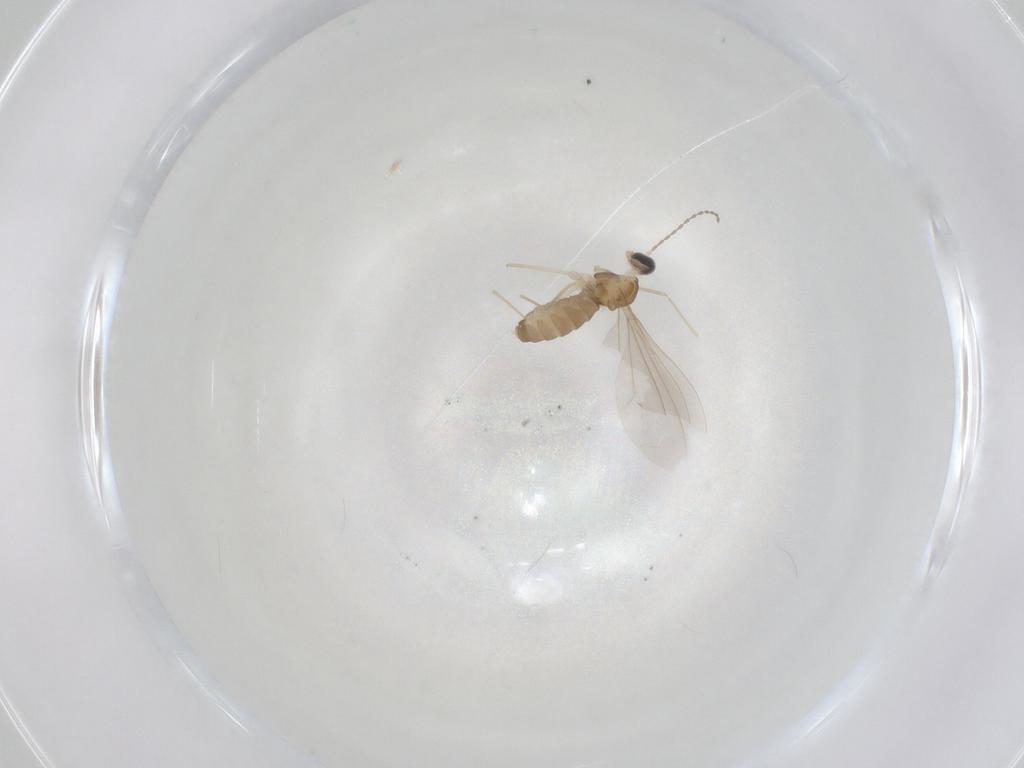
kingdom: Animalia
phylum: Arthropoda
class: Insecta
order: Diptera
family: Cecidomyiidae
